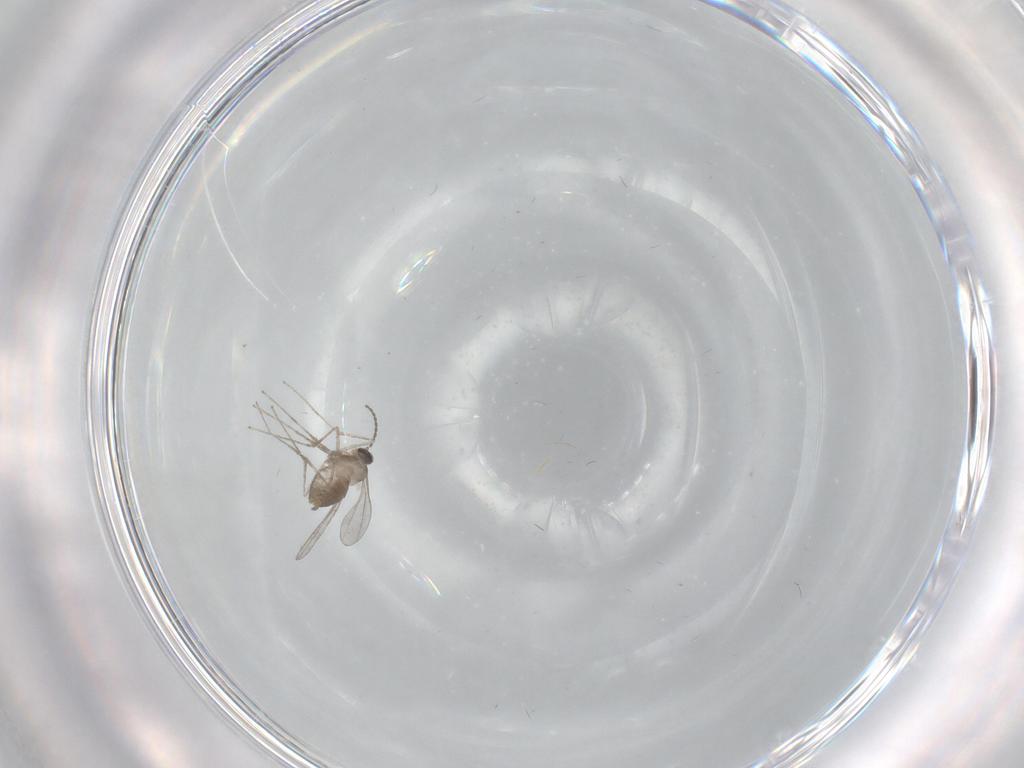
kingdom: Animalia
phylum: Arthropoda
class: Insecta
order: Diptera
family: Cecidomyiidae
